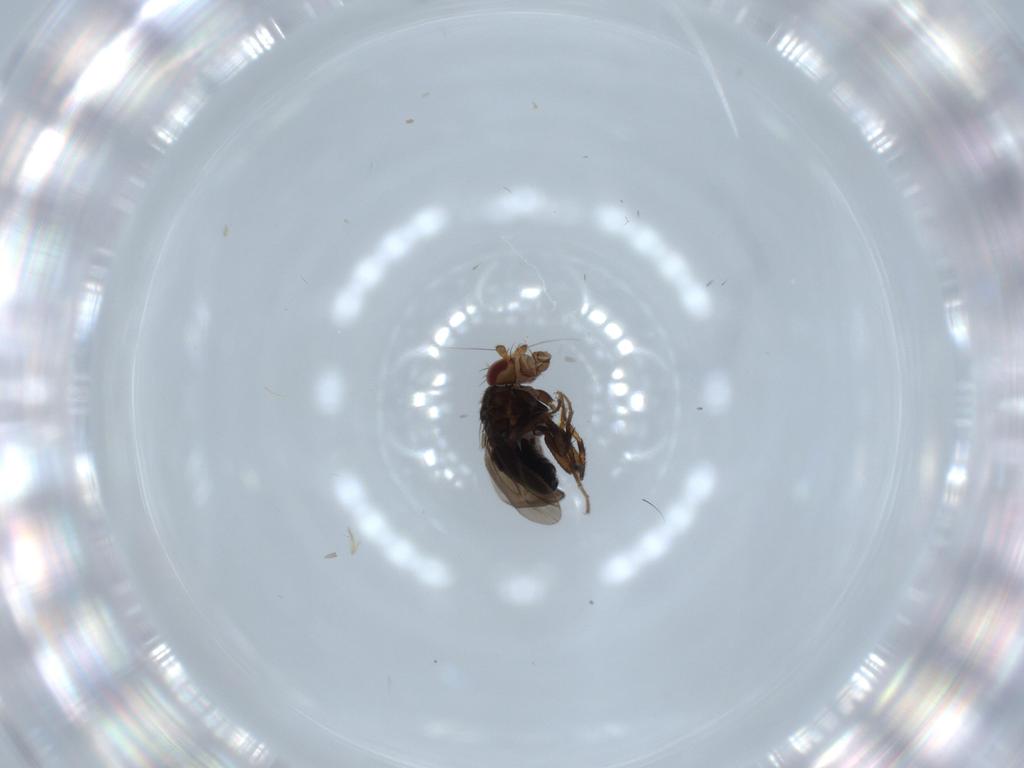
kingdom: Animalia
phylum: Arthropoda
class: Insecta
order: Diptera
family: Sphaeroceridae
